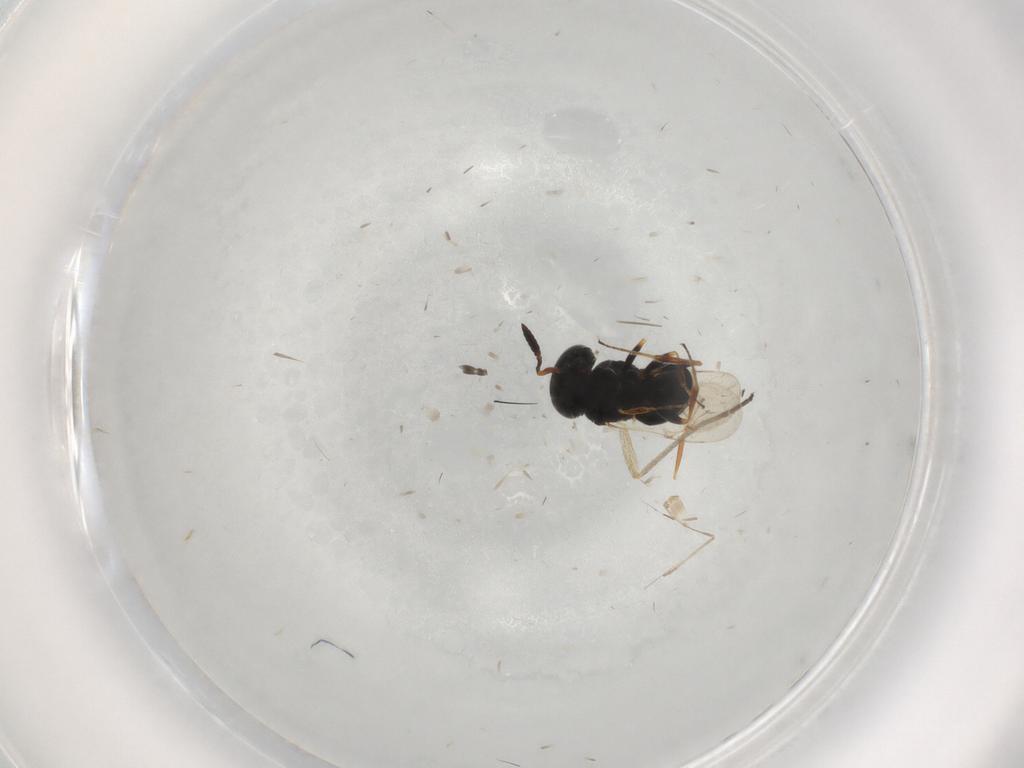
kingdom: Animalia
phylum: Arthropoda
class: Insecta
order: Coleoptera
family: Curculionidae
